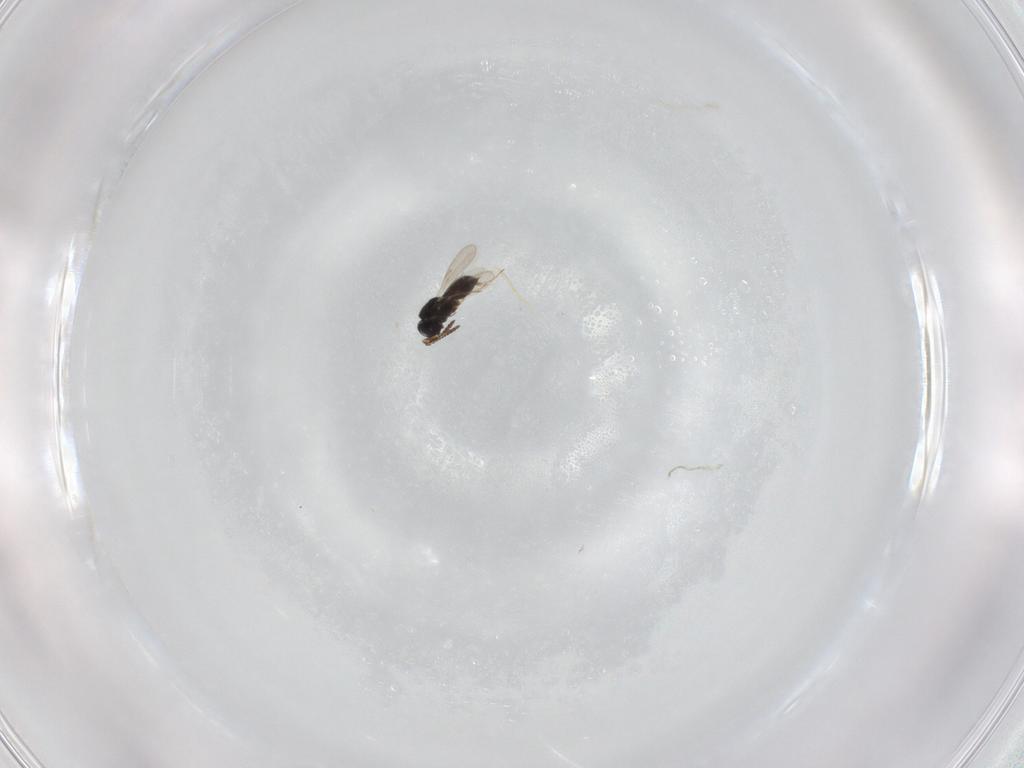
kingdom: Animalia
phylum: Arthropoda
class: Insecta
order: Hymenoptera
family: Scelionidae
